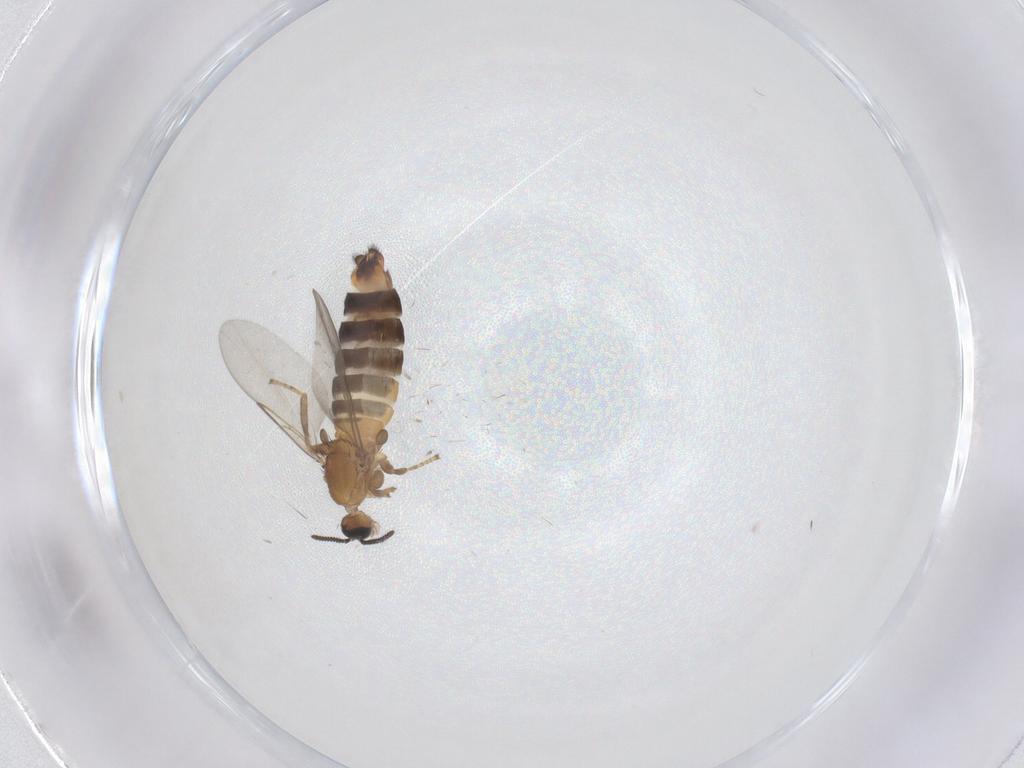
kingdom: Animalia
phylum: Arthropoda
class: Insecta
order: Diptera
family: Scatopsidae
